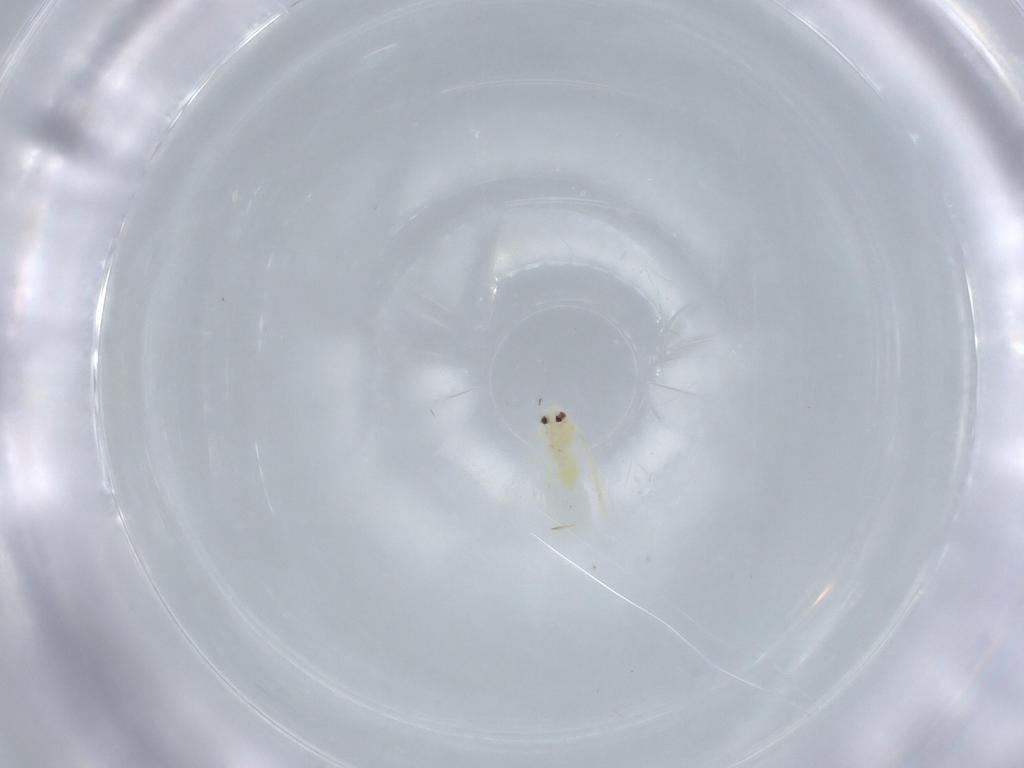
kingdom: Animalia
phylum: Arthropoda
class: Insecta
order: Hemiptera
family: Aleyrodidae
